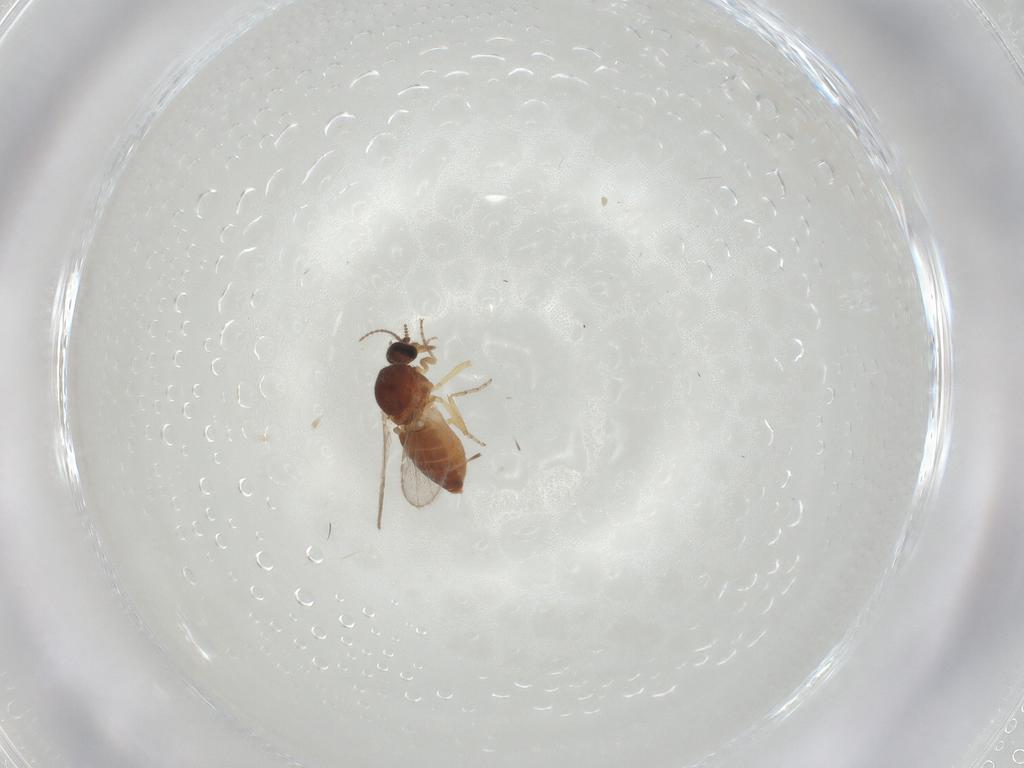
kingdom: Animalia
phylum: Arthropoda
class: Insecta
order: Diptera
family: Ceratopogonidae
